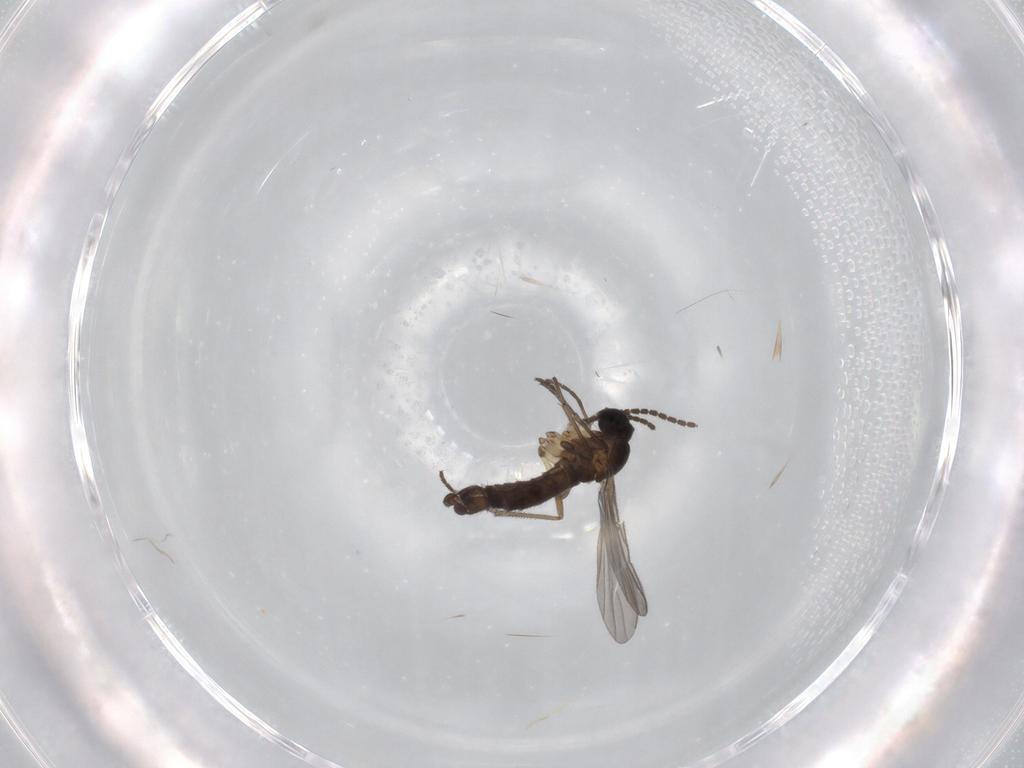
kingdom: Animalia
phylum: Arthropoda
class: Insecta
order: Diptera
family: Sciaridae
